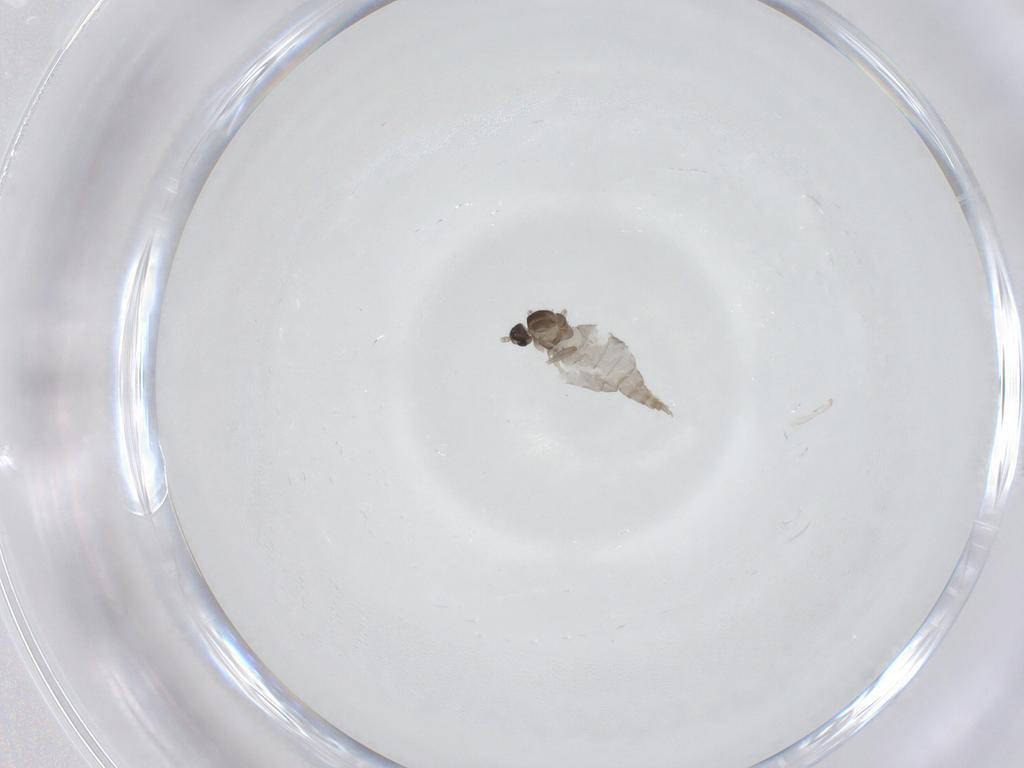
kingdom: Animalia
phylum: Arthropoda
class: Insecta
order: Diptera
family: Cecidomyiidae
